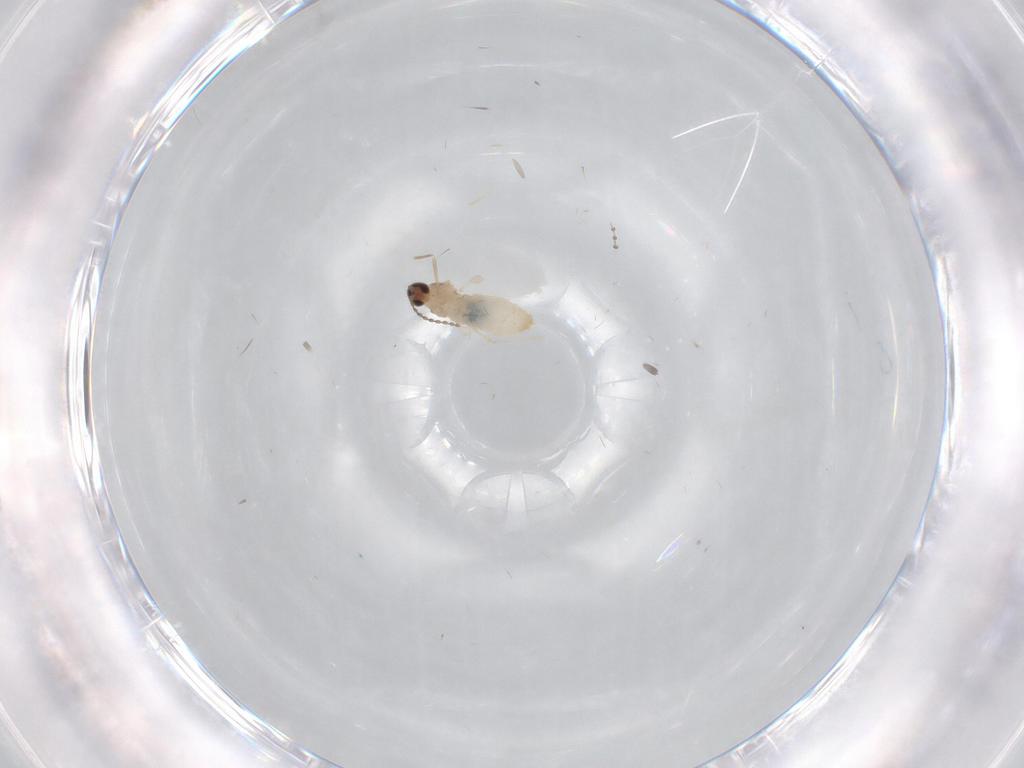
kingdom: Animalia
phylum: Arthropoda
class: Insecta
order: Diptera
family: Cecidomyiidae
